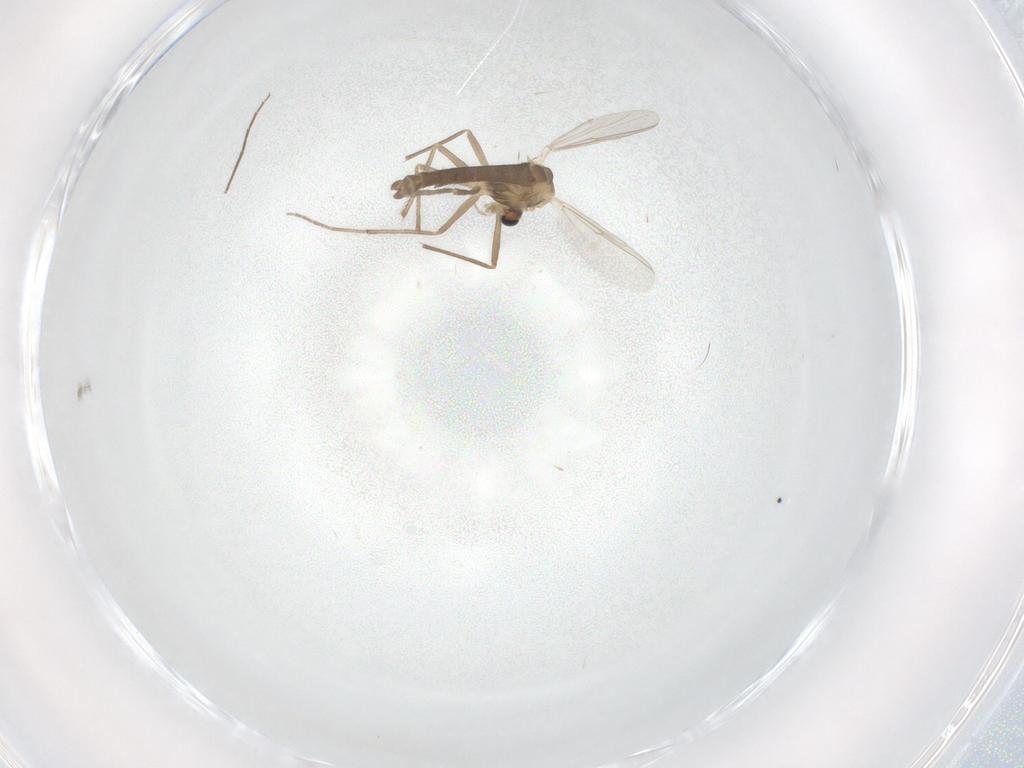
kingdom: Animalia
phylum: Arthropoda
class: Insecta
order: Diptera
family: Chironomidae
